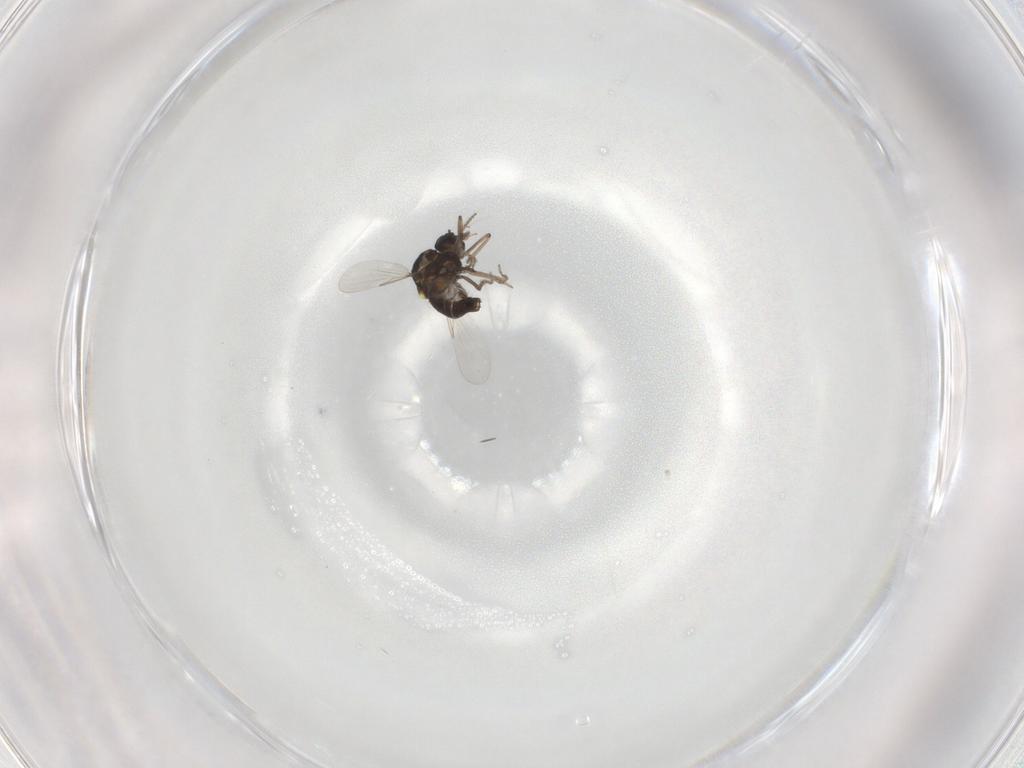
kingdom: Animalia
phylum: Arthropoda
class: Insecta
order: Diptera
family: Ceratopogonidae
